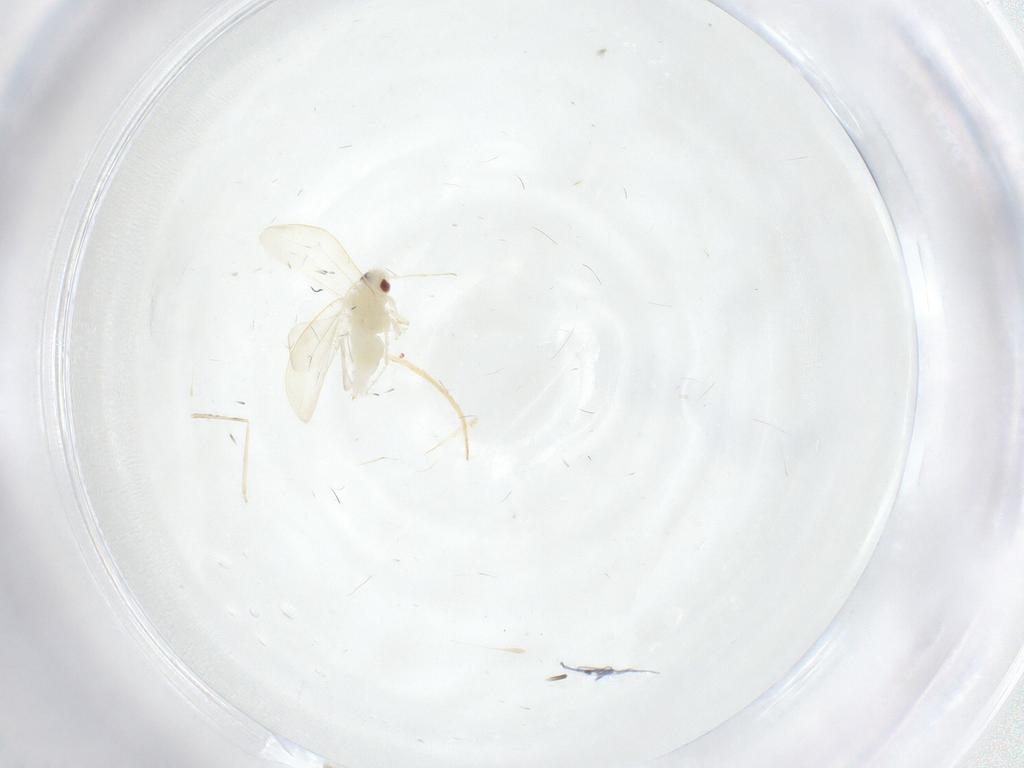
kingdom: Animalia
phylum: Arthropoda
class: Insecta
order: Hemiptera
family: Aleyrodidae
